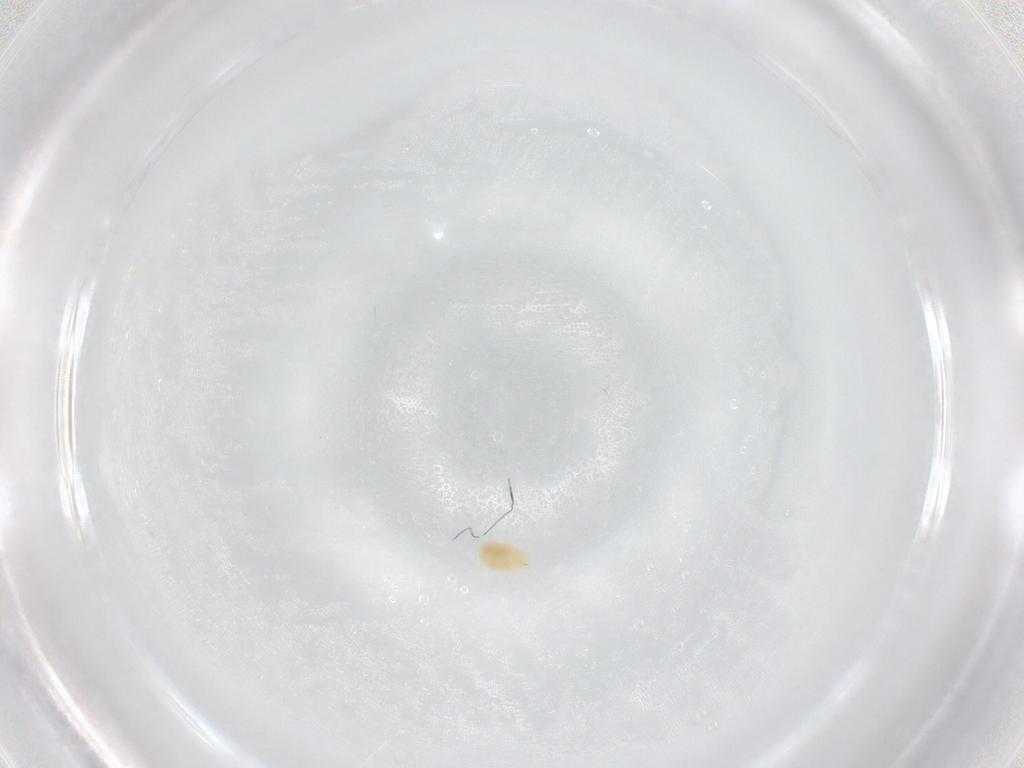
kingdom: Animalia
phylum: Arthropoda
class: Arachnida
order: Trombidiformes
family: Tetranychidae
